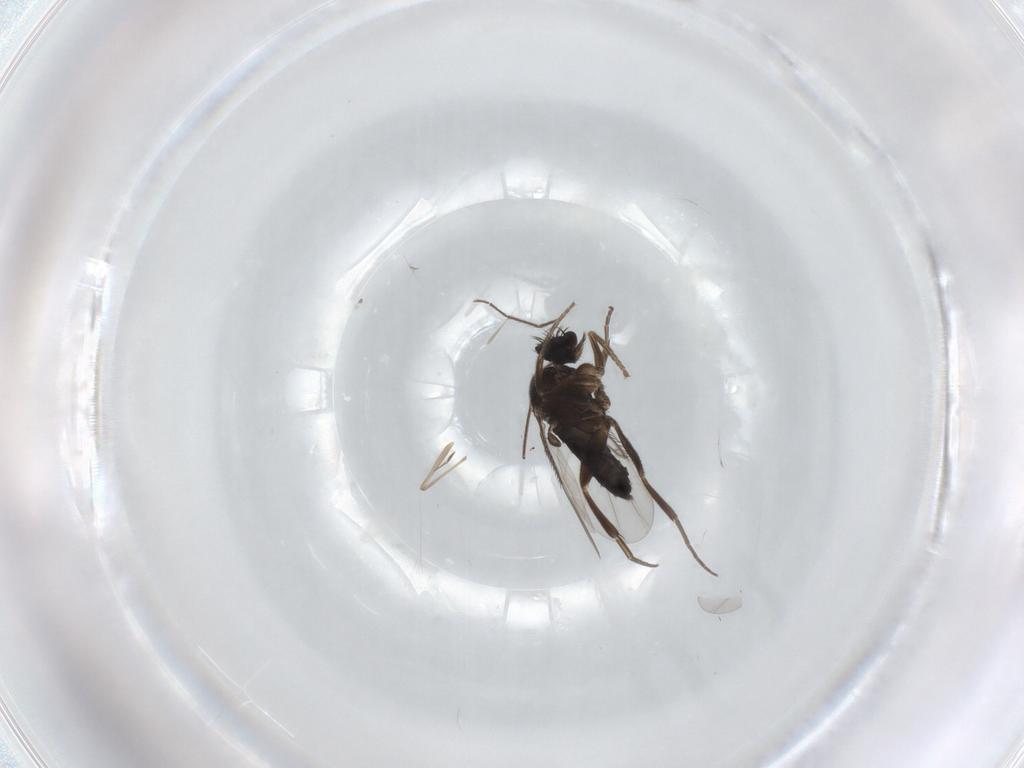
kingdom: Animalia
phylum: Arthropoda
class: Insecta
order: Diptera
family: Phoridae
